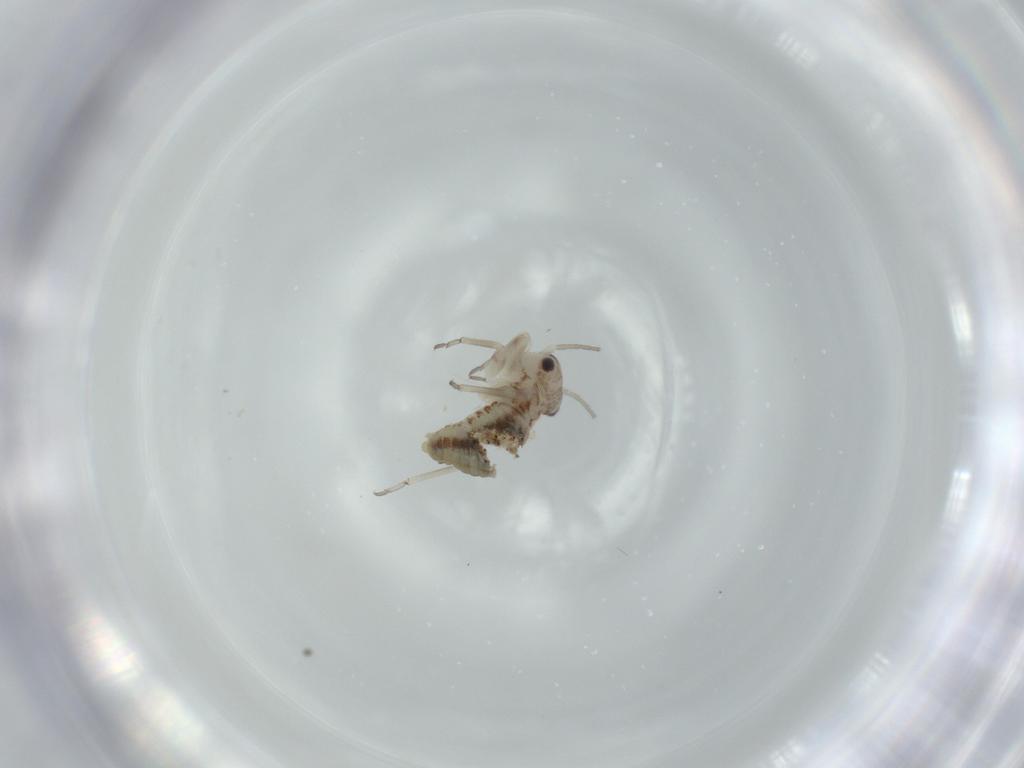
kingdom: Animalia
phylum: Arthropoda
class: Insecta
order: Psocodea
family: Psocidae
